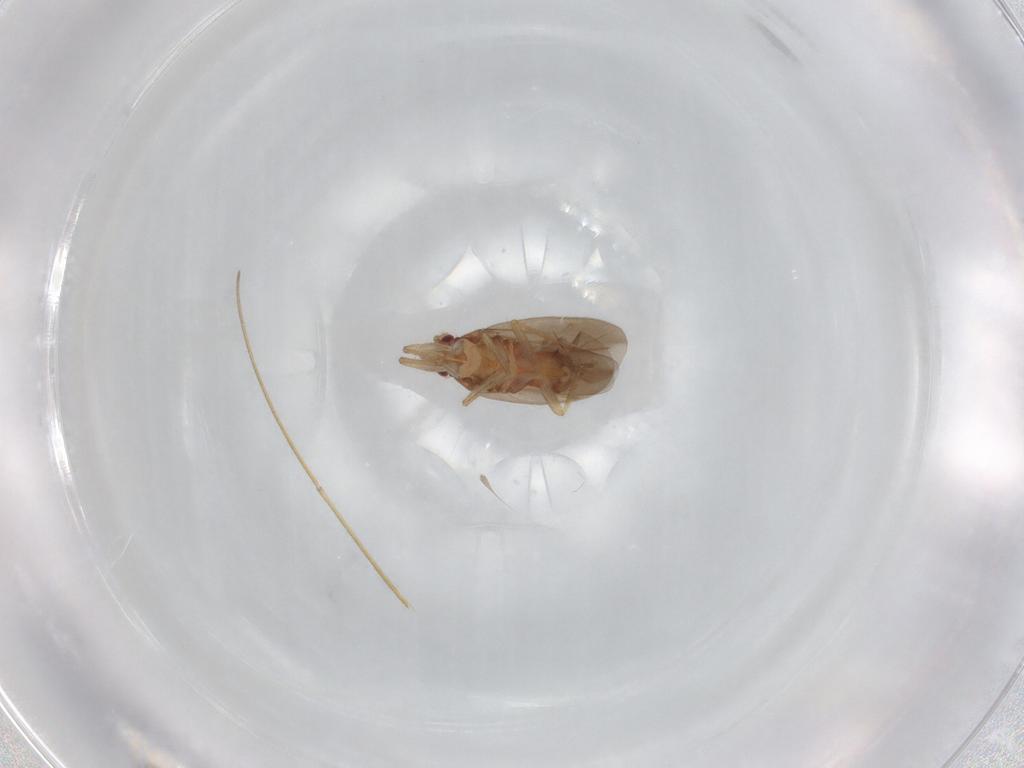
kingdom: Animalia
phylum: Arthropoda
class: Insecta
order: Hemiptera
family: Ceratocombidae
